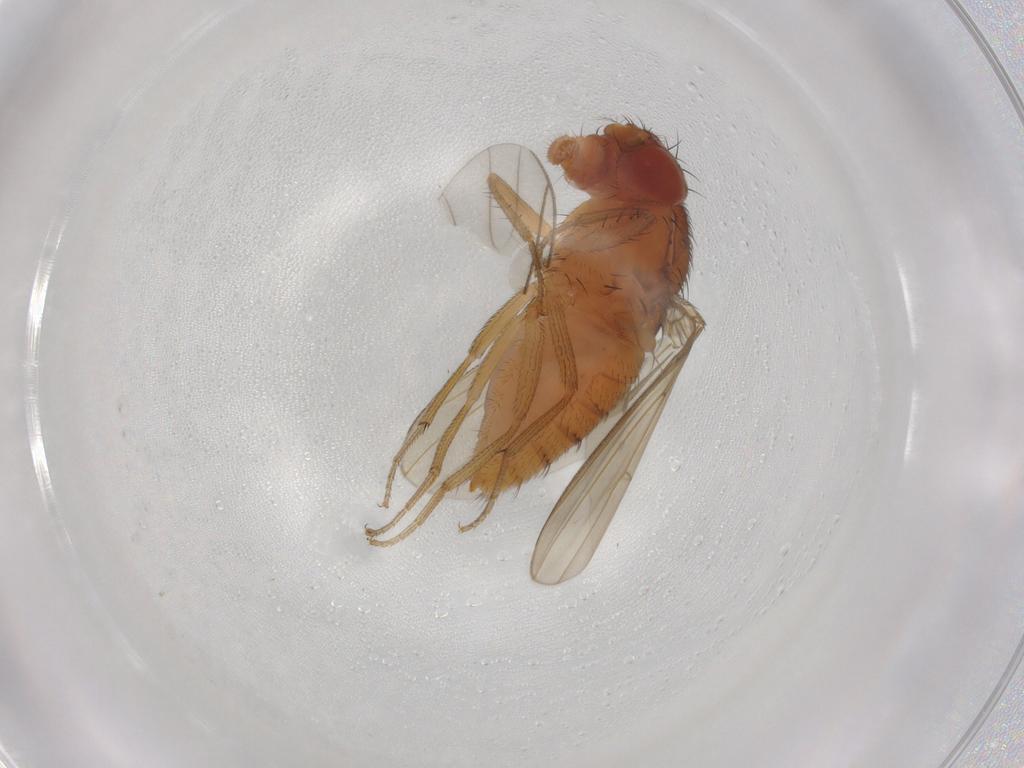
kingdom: Animalia
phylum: Arthropoda
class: Insecta
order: Diptera
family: Drosophilidae
